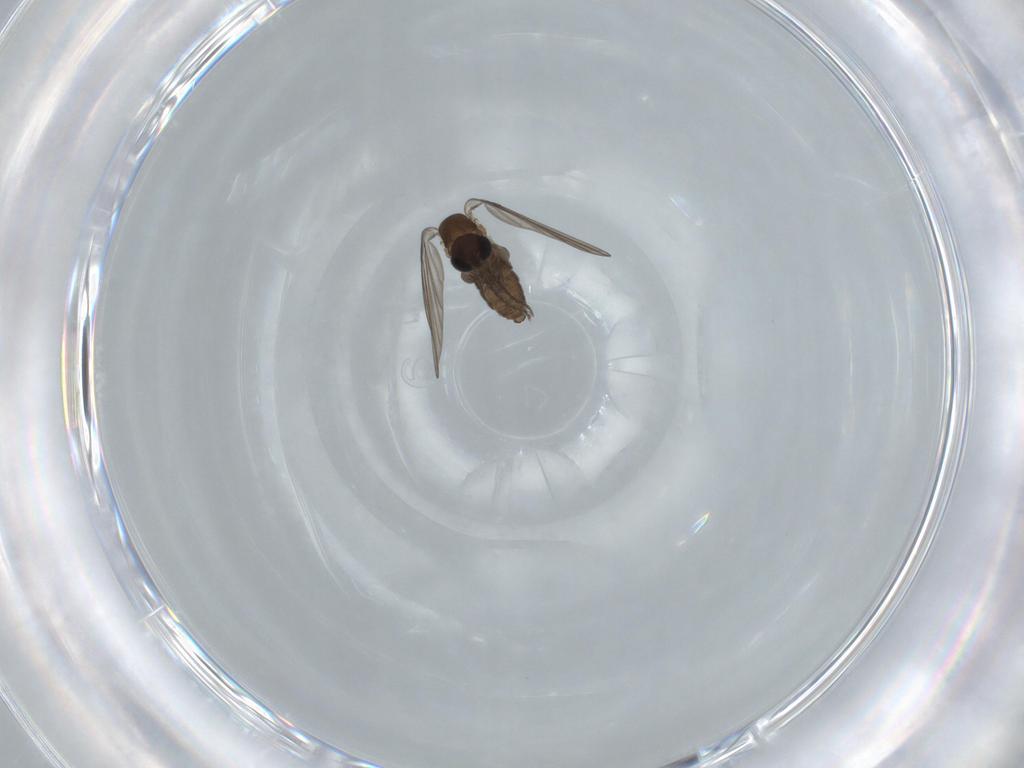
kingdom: Animalia
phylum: Arthropoda
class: Insecta
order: Diptera
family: Psychodidae
